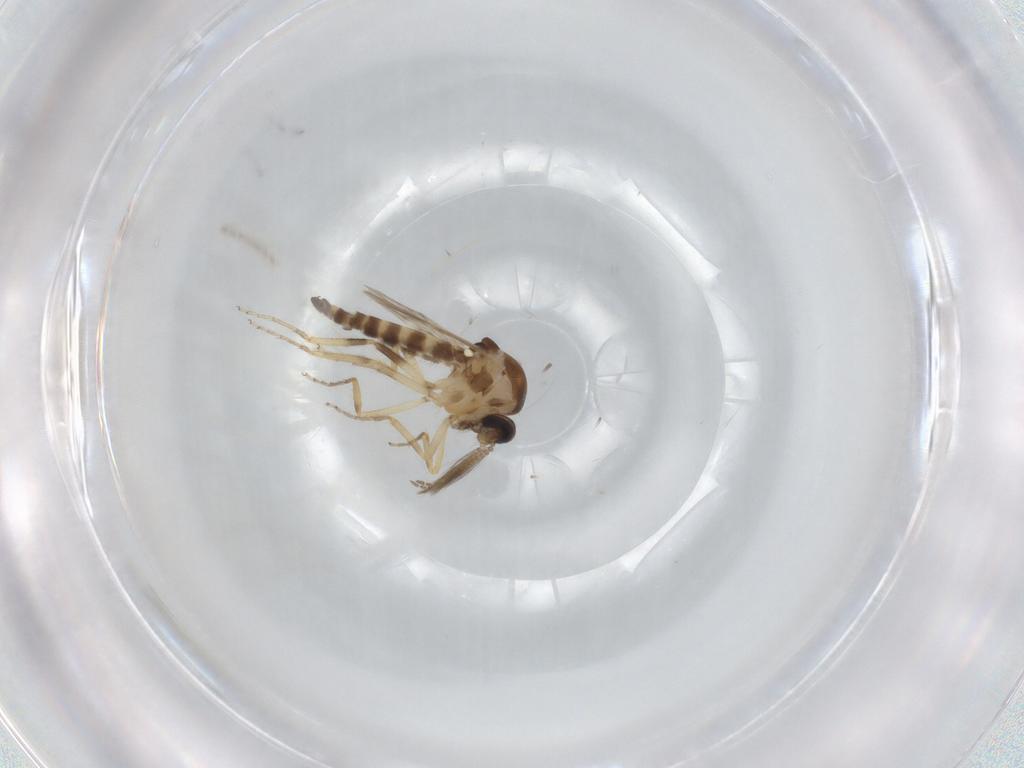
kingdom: Animalia
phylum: Arthropoda
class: Insecta
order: Diptera
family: Ceratopogonidae
